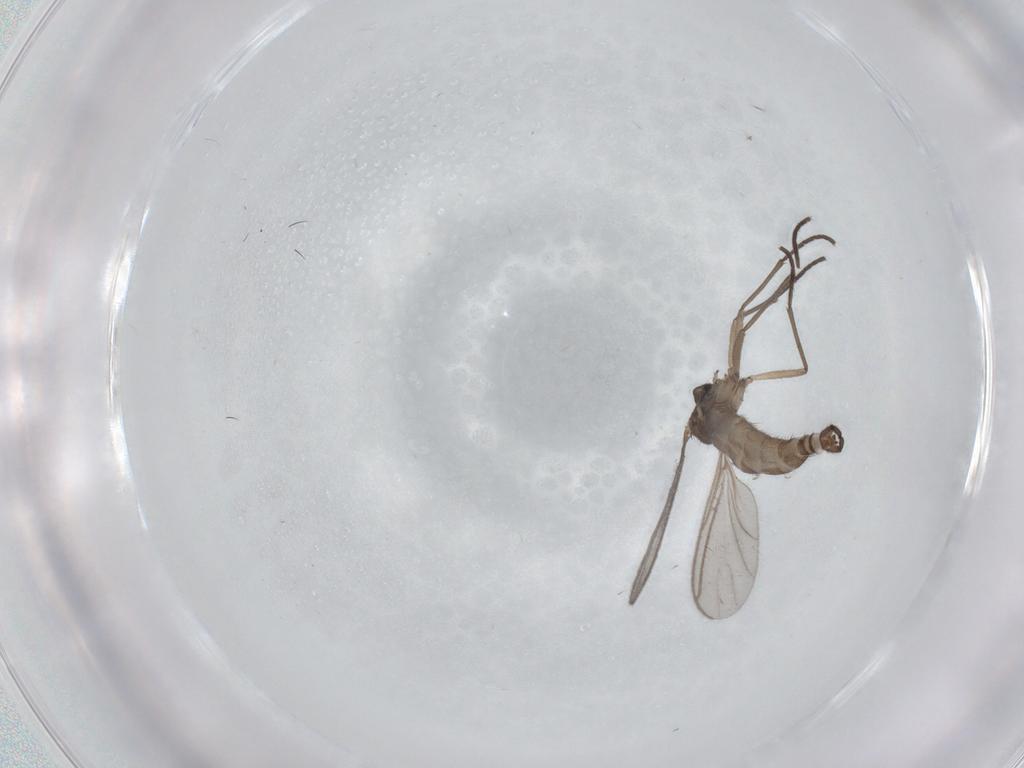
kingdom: Animalia
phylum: Arthropoda
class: Insecta
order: Diptera
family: Sciaridae
